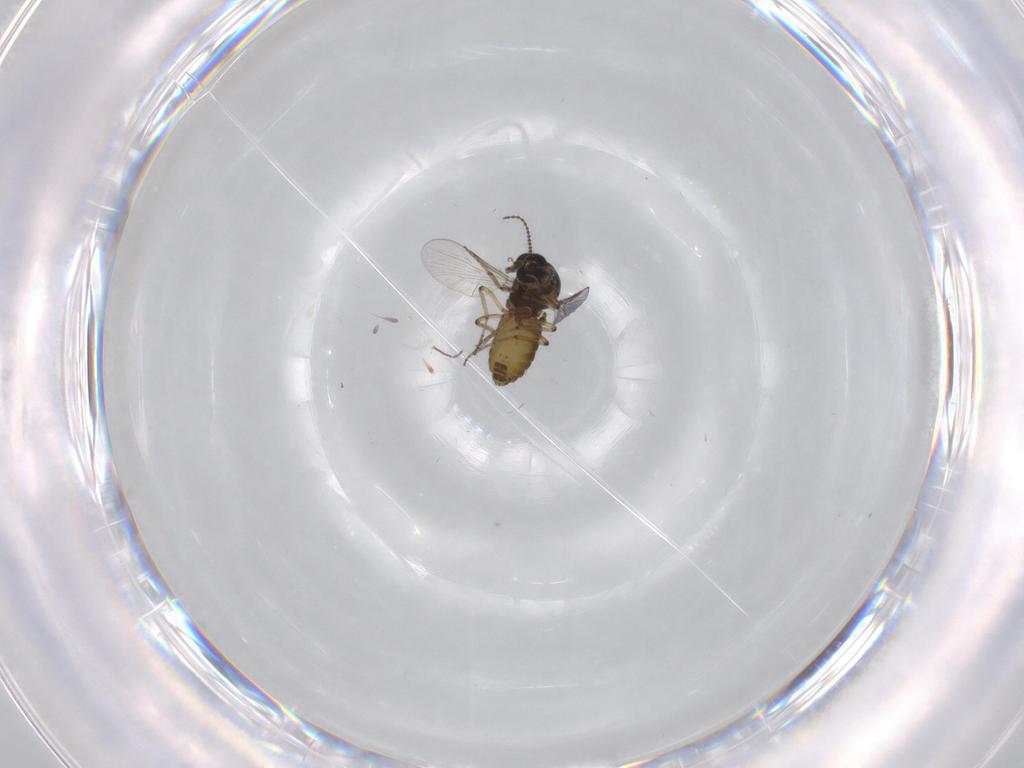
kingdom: Animalia
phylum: Arthropoda
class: Insecta
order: Diptera
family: Ceratopogonidae
